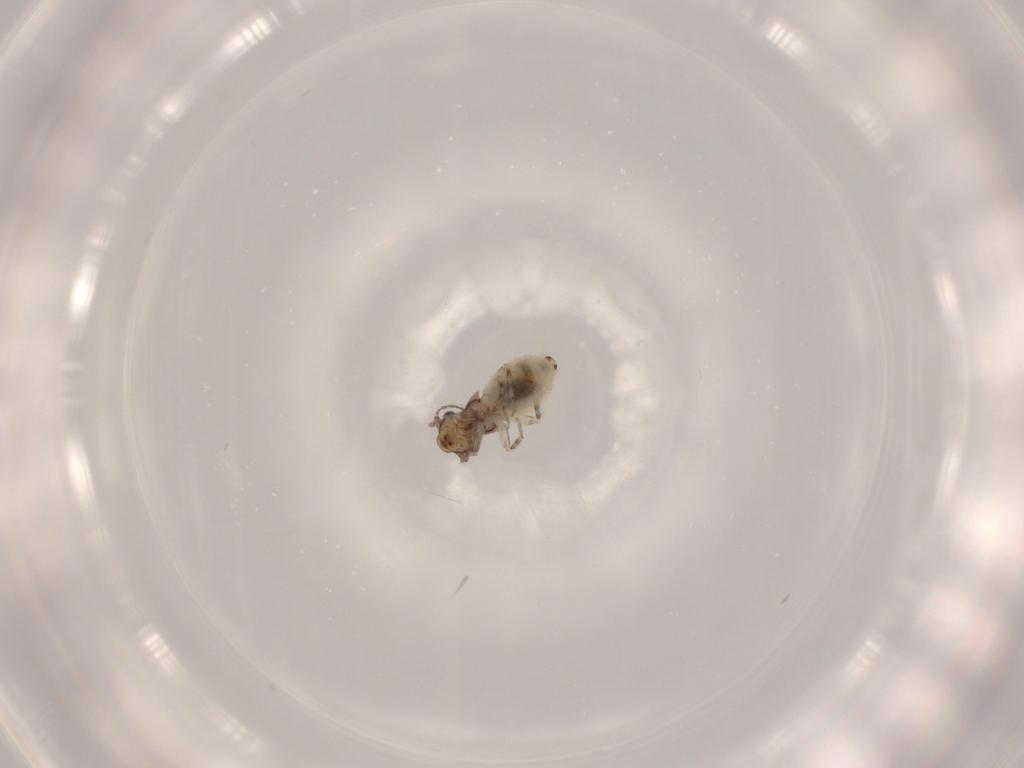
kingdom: Animalia
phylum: Arthropoda
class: Insecta
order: Psocodea
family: Lepidopsocidae
